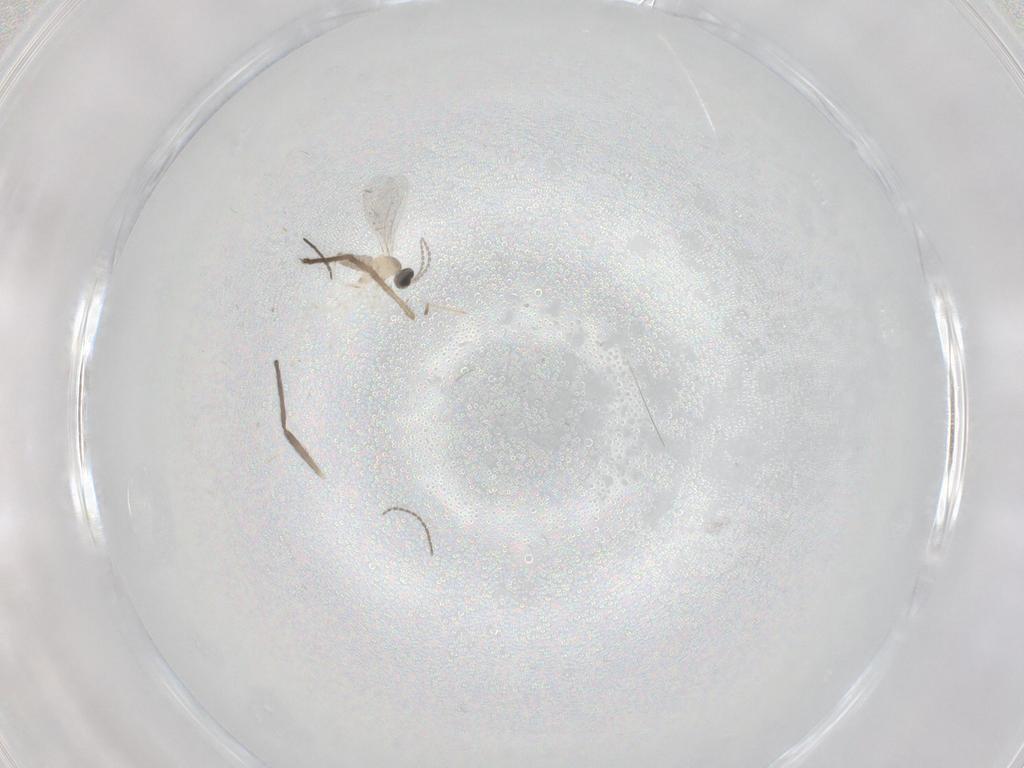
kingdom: Animalia
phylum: Arthropoda
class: Insecta
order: Diptera
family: Chironomidae
